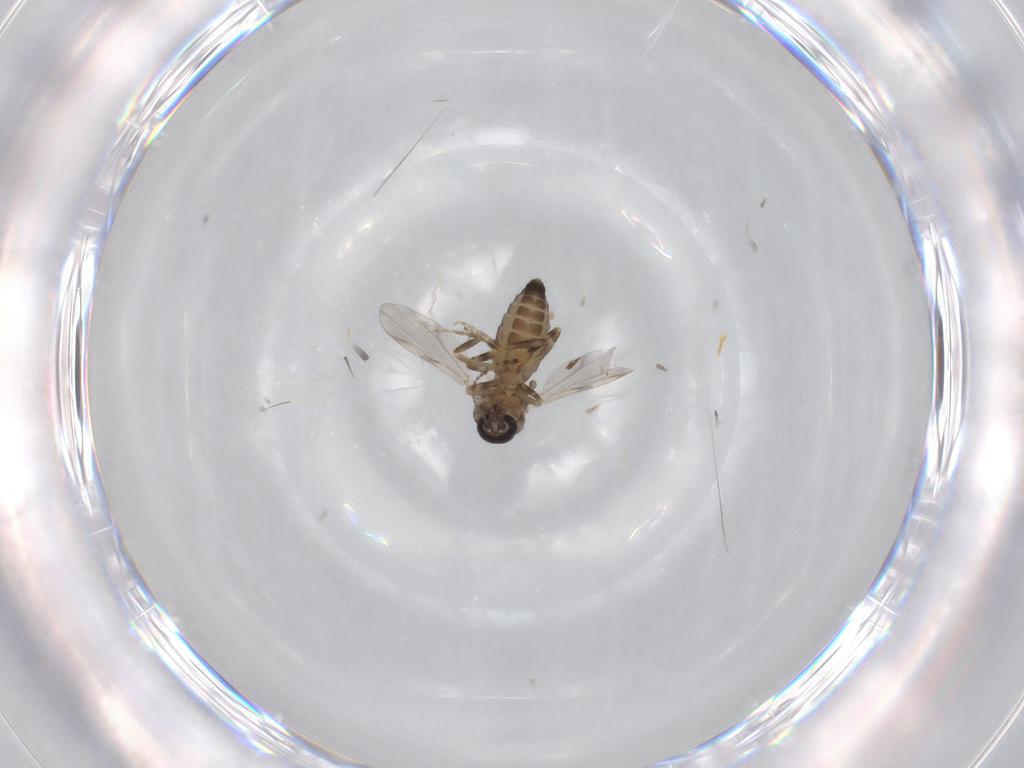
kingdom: Animalia
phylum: Arthropoda
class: Insecta
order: Diptera
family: Ceratopogonidae
